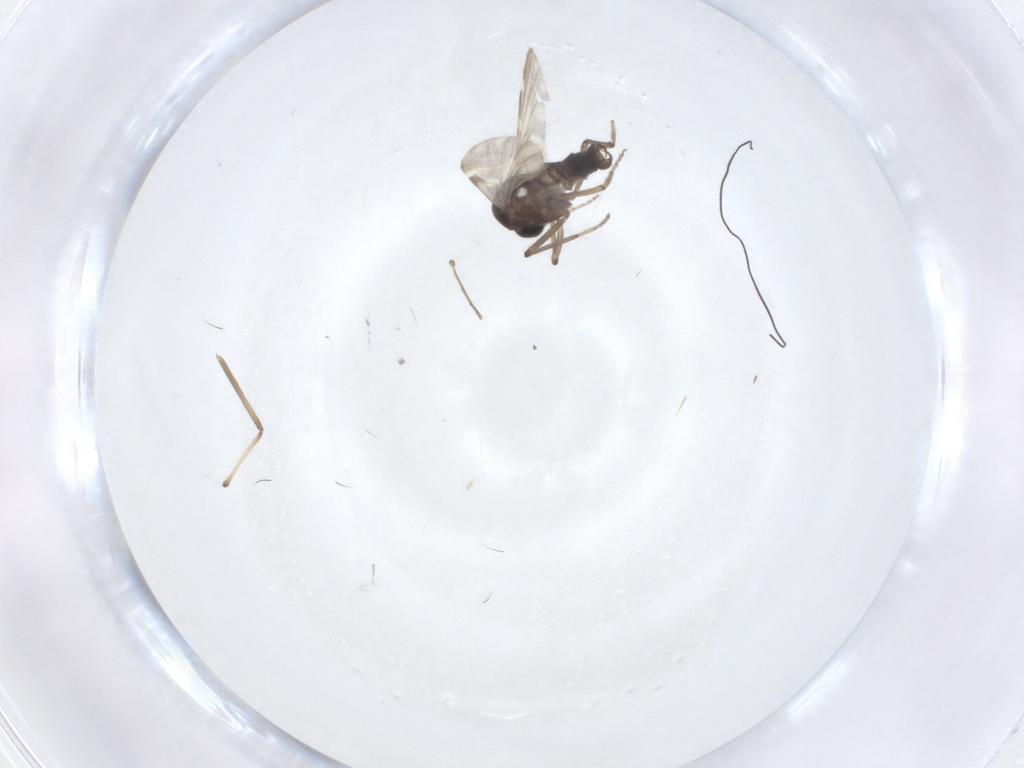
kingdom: Animalia
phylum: Arthropoda
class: Insecta
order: Diptera
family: Ceratopogonidae
